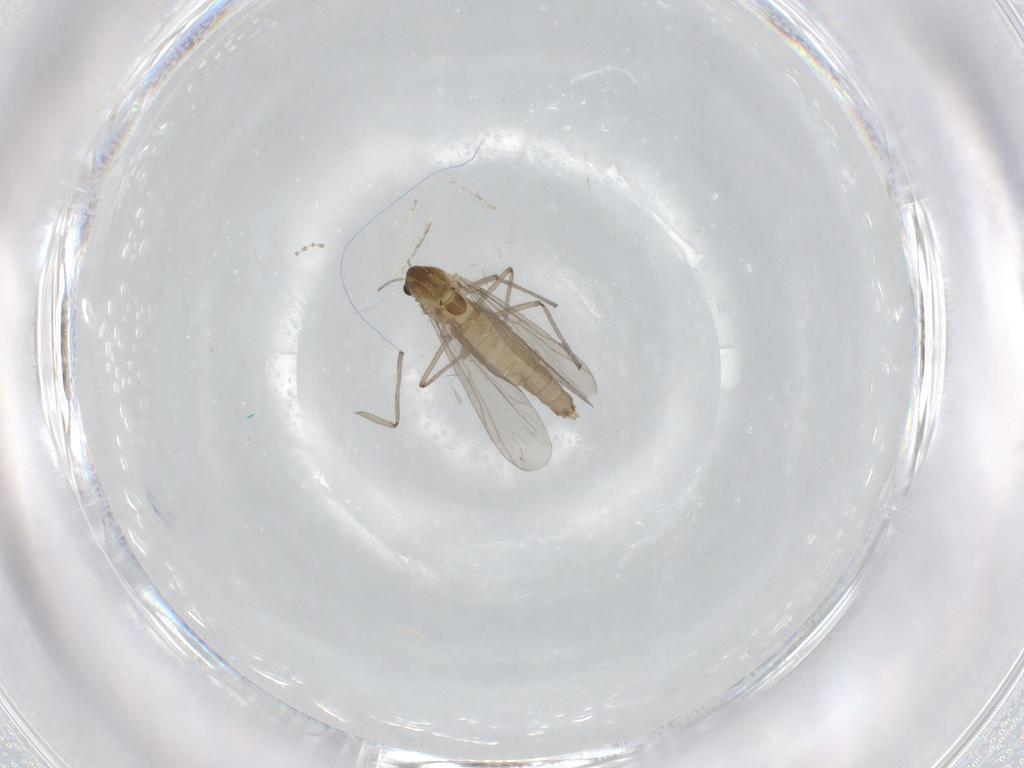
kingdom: Animalia
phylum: Arthropoda
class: Insecta
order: Diptera
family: Chironomidae
